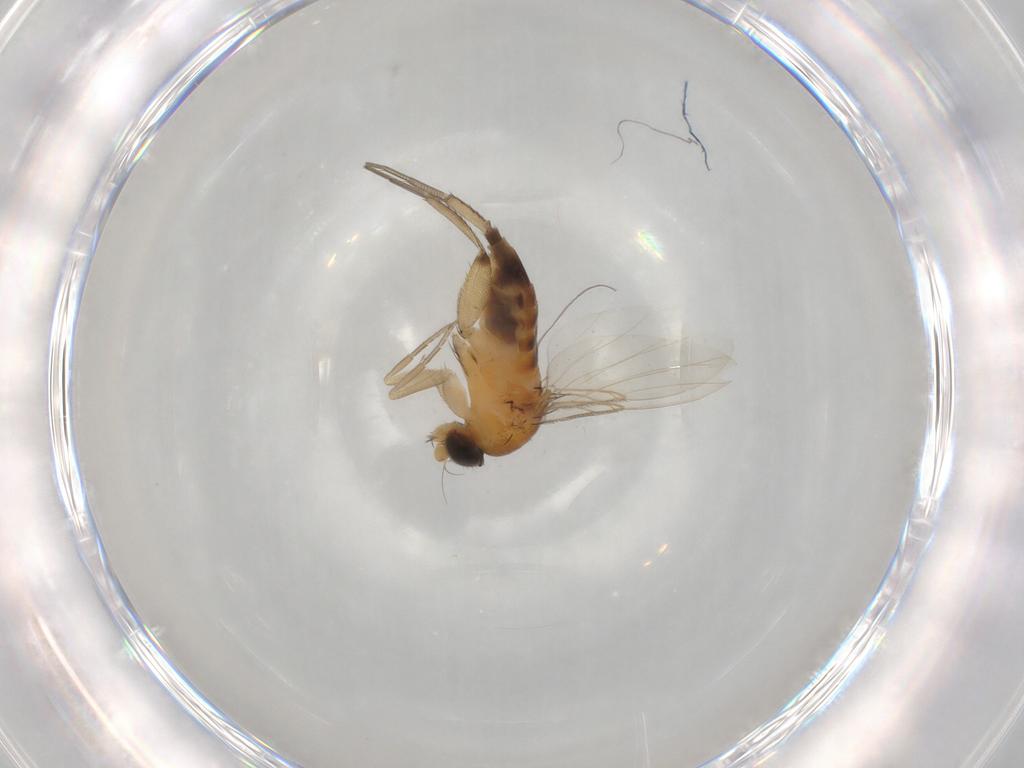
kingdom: Animalia
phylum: Arthropoda
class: Insecta
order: Diptera
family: Phoridae
